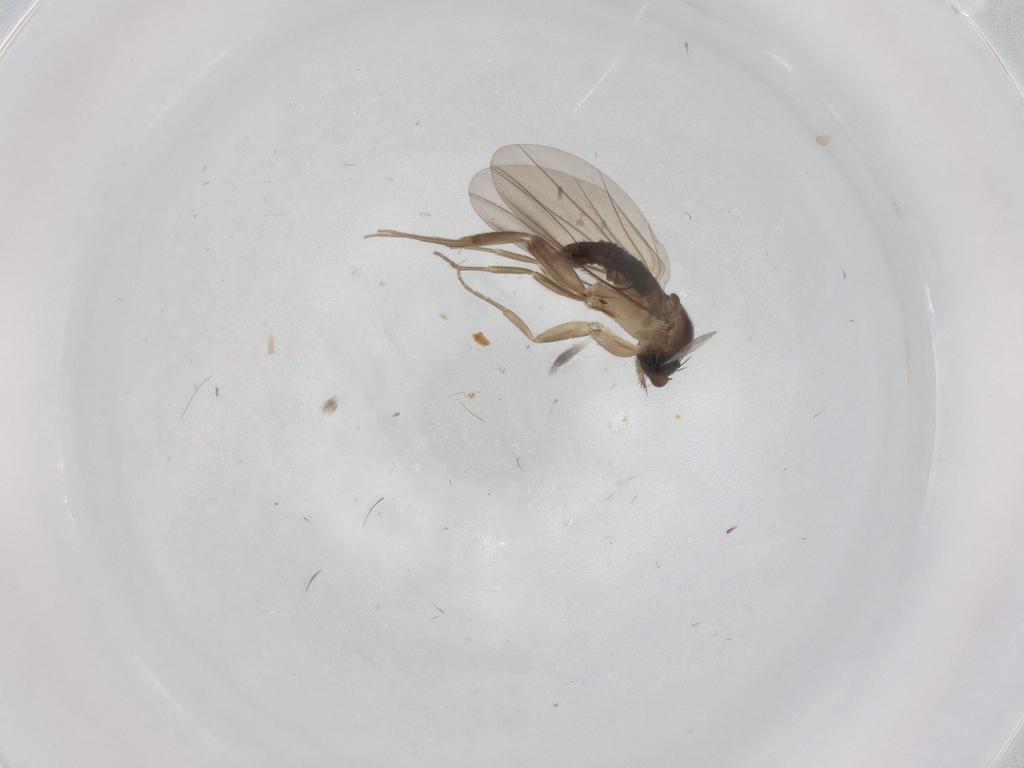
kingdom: Animalia
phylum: Arthropoda
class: Insecta
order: Diptera
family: Phoridae
